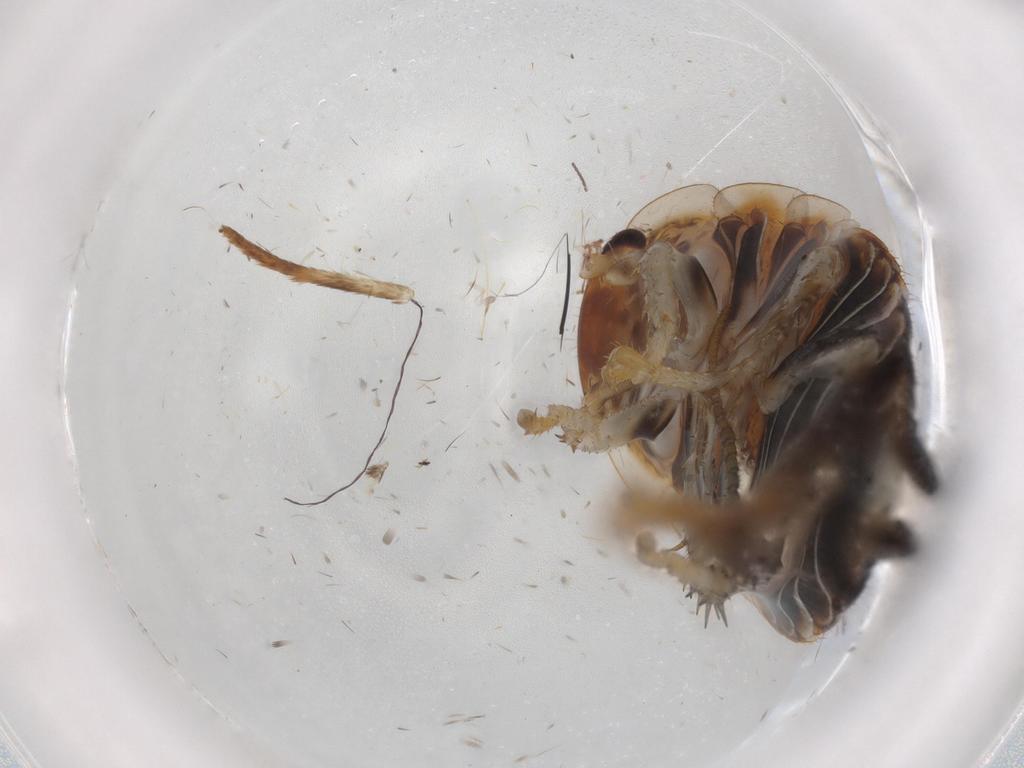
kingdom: Animalia
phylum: Arthropoda
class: Insecta
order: Blattodea
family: Ectobiidae
